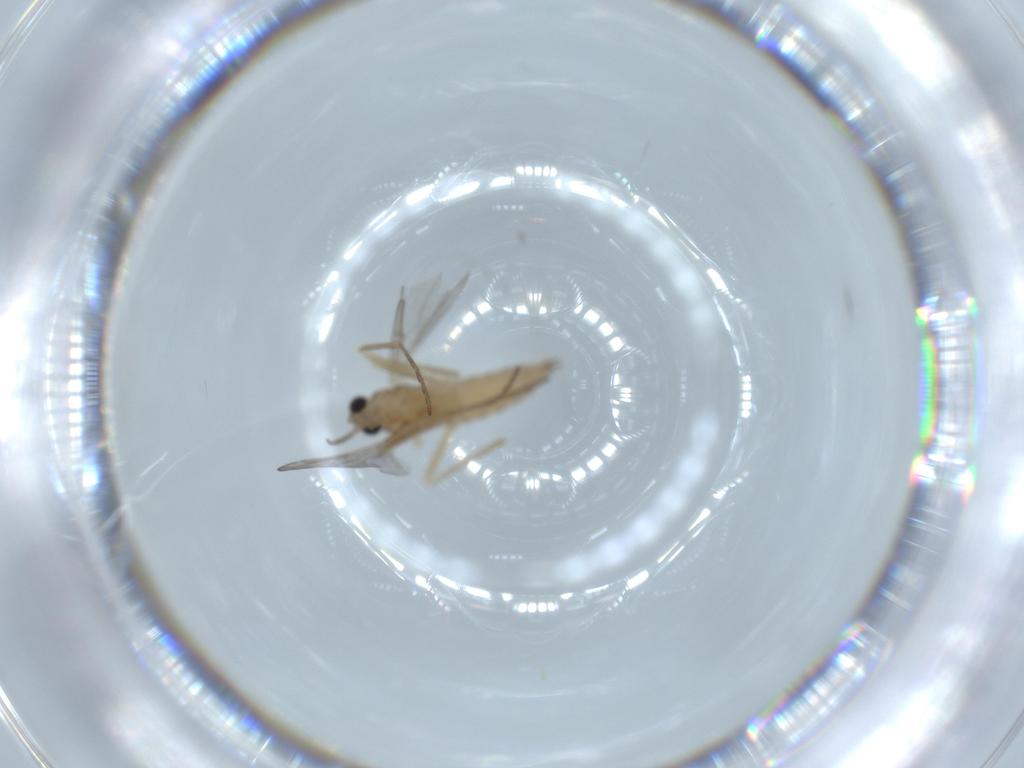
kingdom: Animalia
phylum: Arthropoda
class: Insecta
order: Diptera
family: Cecidomyiidae
